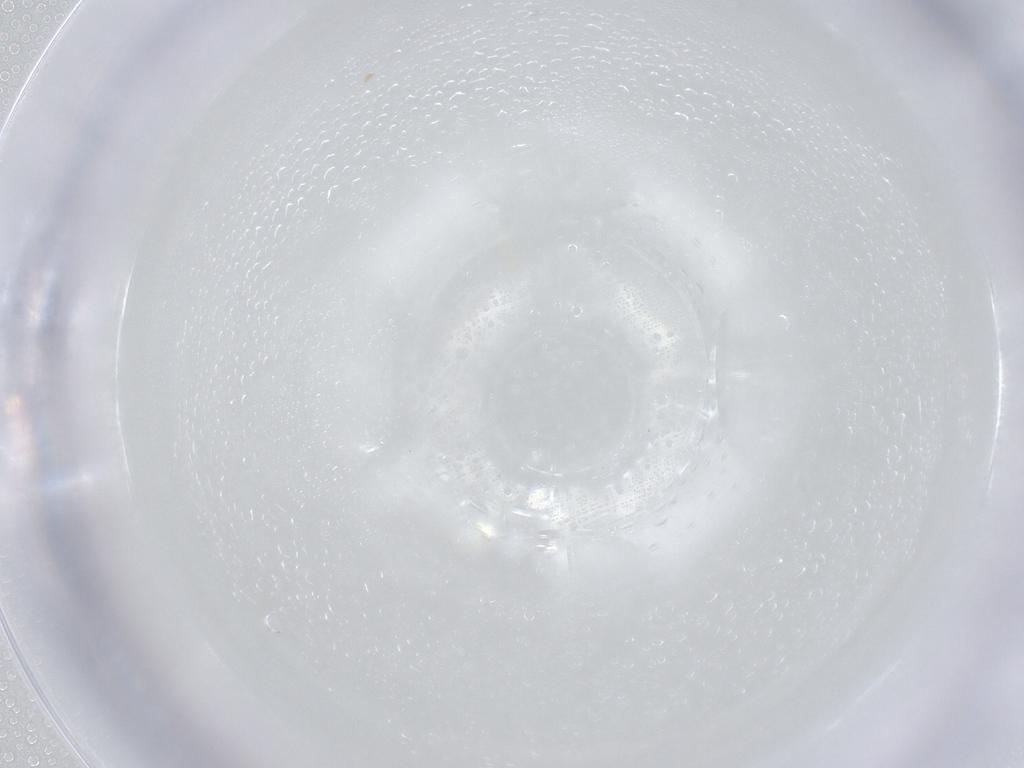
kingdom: Animalia
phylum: Arthropoda
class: Arachnida
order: Trombidiformes
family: Eupodidae
